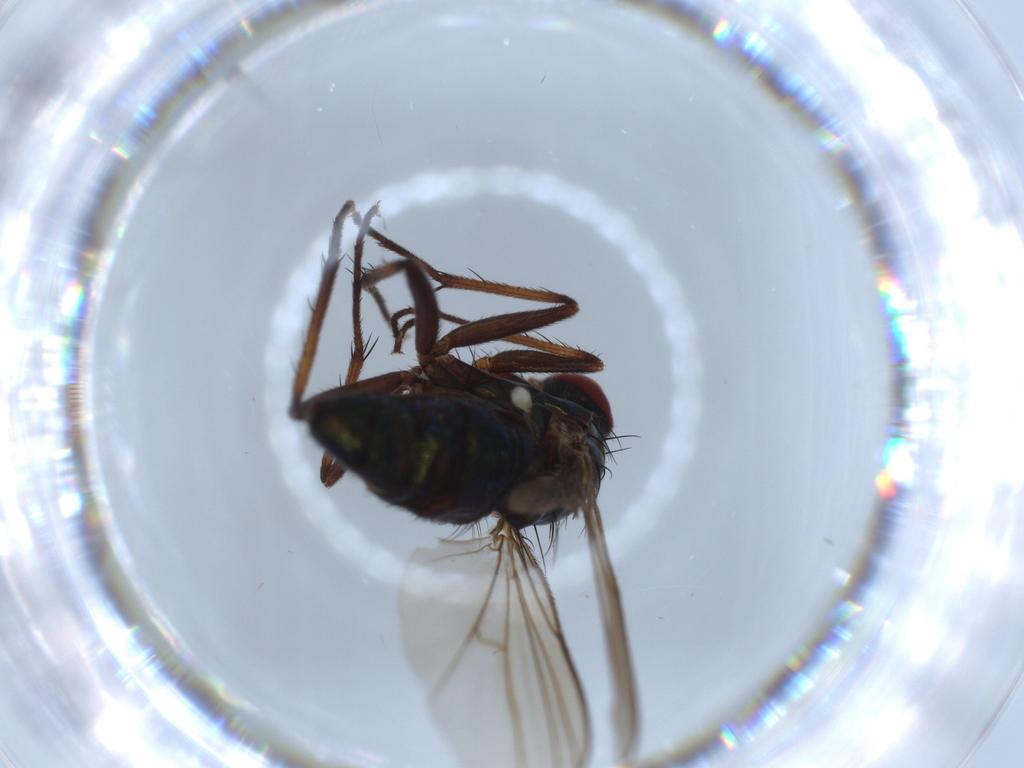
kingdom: Animalia
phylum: Arthropoda
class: Insecta
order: Diptera
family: Dolichopodidae
